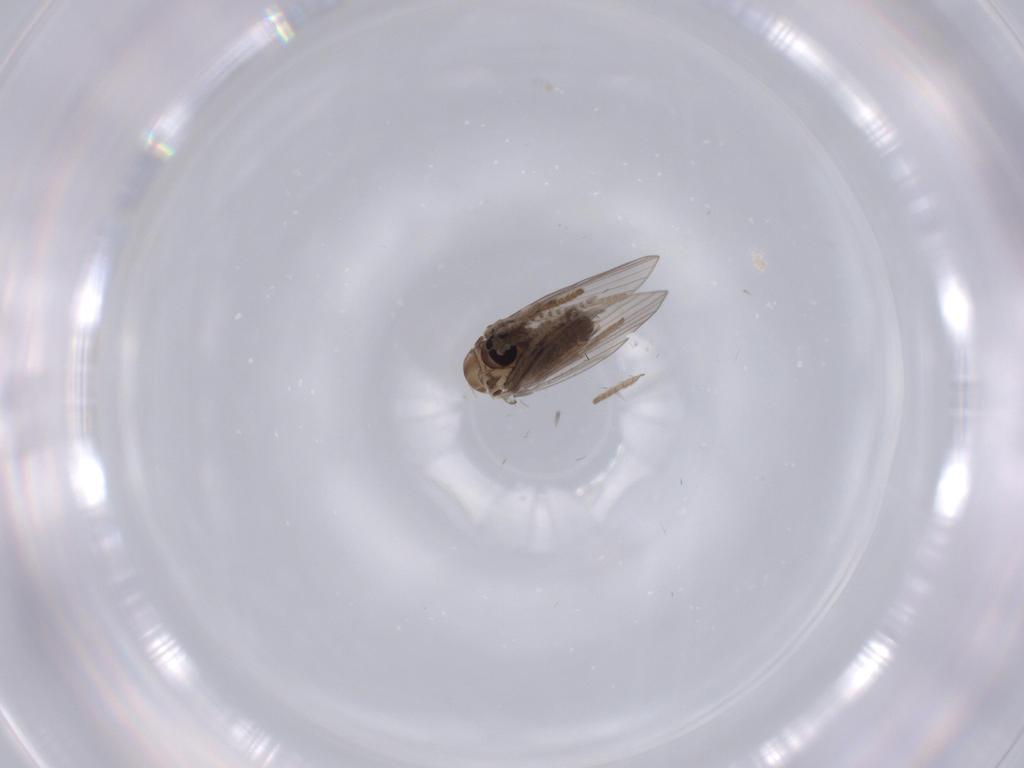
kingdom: Animalia
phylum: Arthropoda
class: Insecta
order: Diptera
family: Psychodidae
